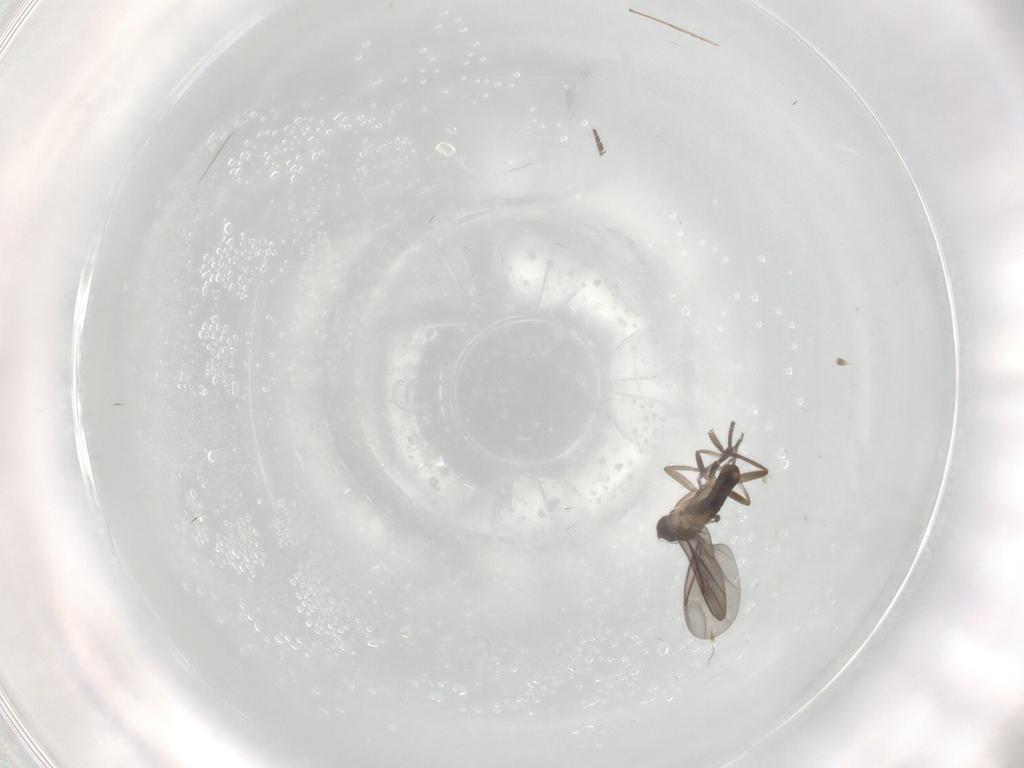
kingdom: Animalia
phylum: Arthropoda
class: Insecta
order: Diptera
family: Phoridae
